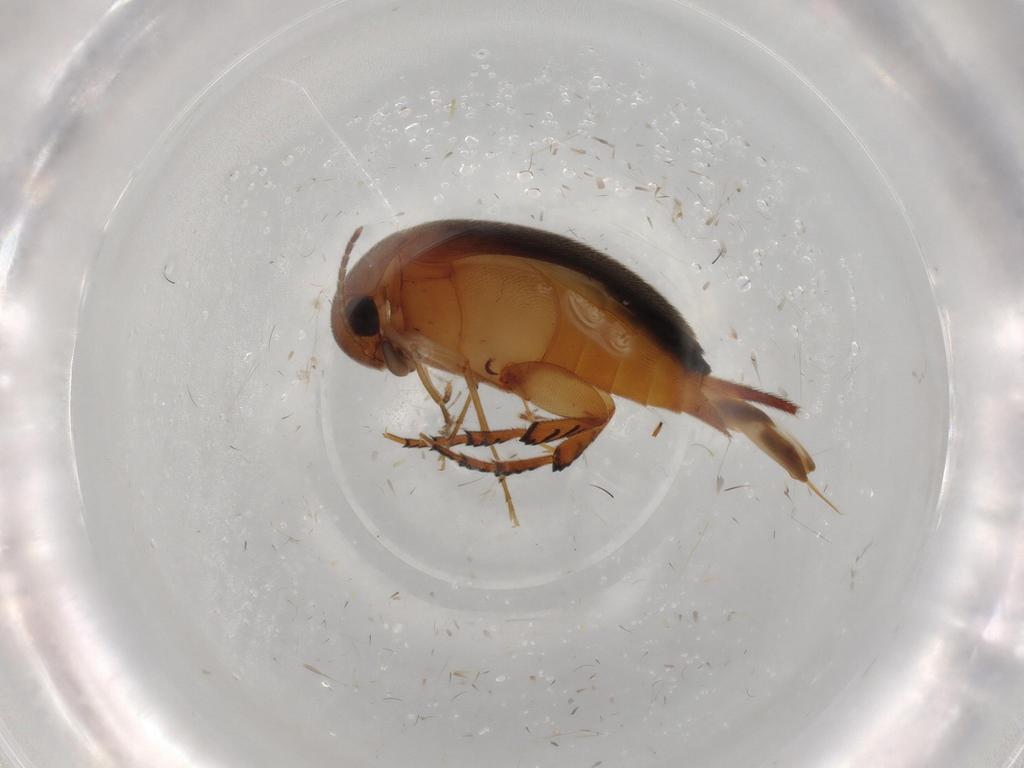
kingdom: Animalia
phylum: Arthropoda
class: Insecta
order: Coleoptera
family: Mordellidae
